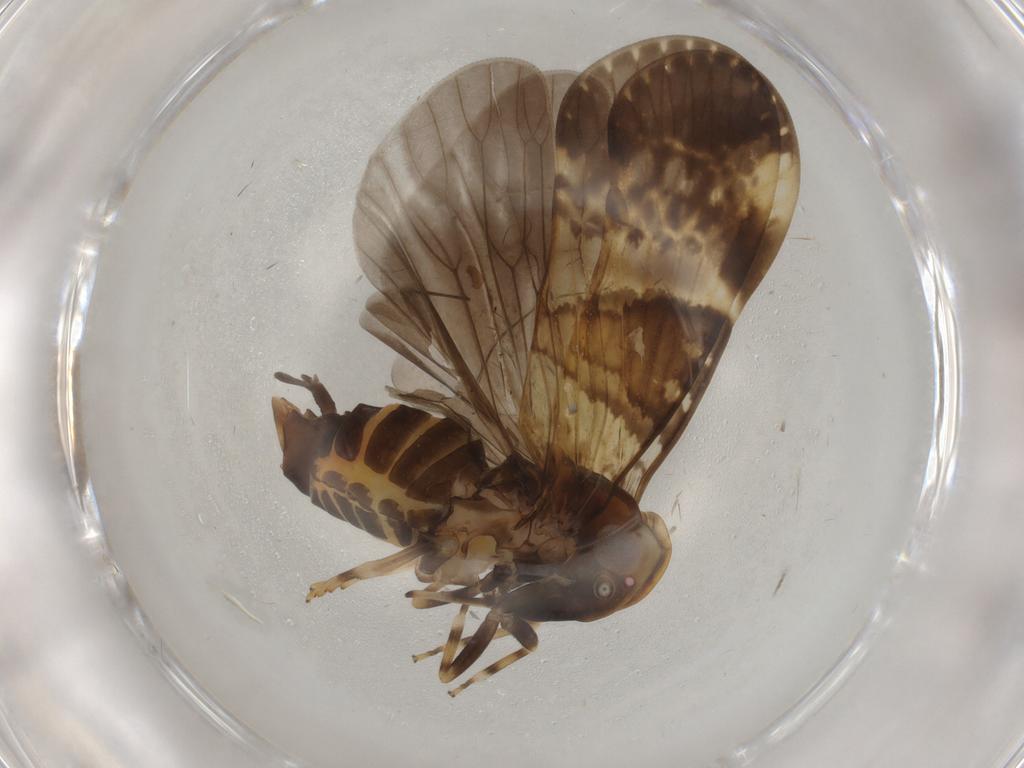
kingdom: Animalia
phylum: Arthropoda
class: Insecta
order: Hemiptera
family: Cixiidae
